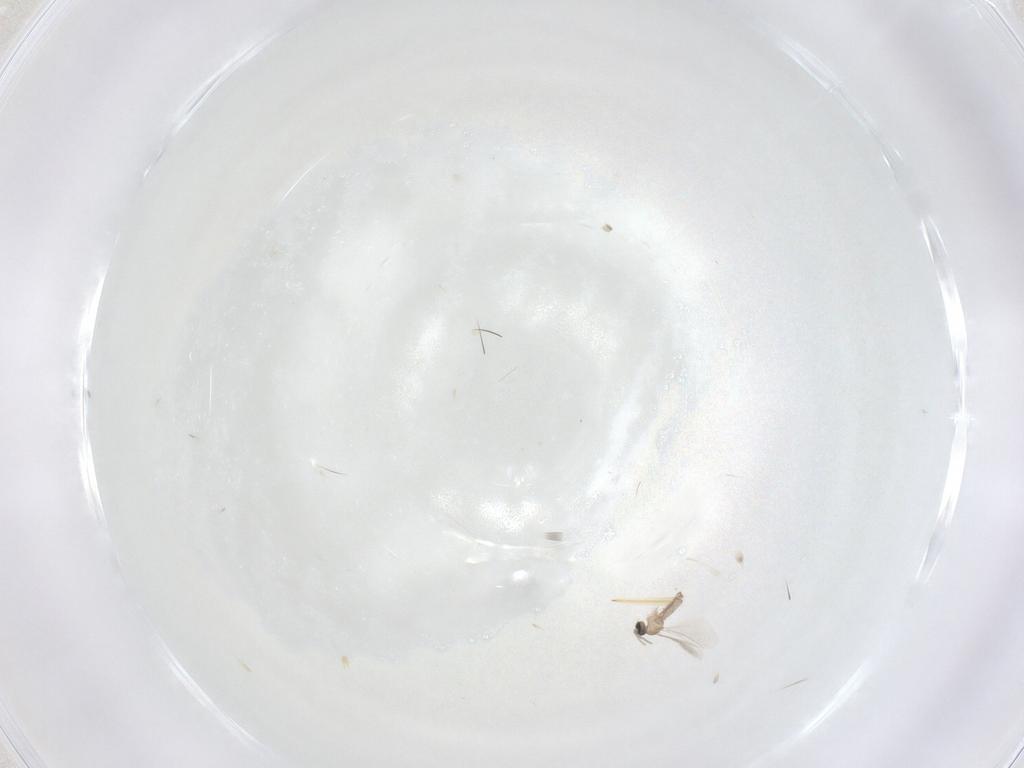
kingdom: Animalia
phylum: Arthropoda
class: Insecta
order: Diptera
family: Cecidomyiidae
